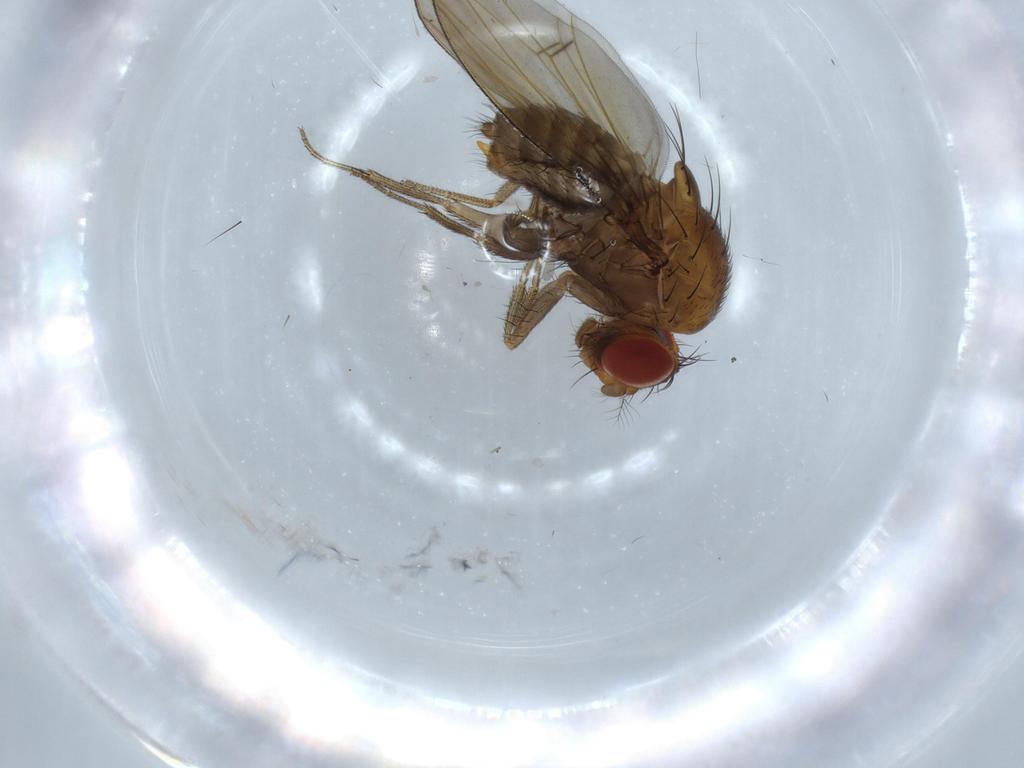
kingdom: Animalia
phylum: Arthropoda
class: Insecta
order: Diptera
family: Drosophilidae
